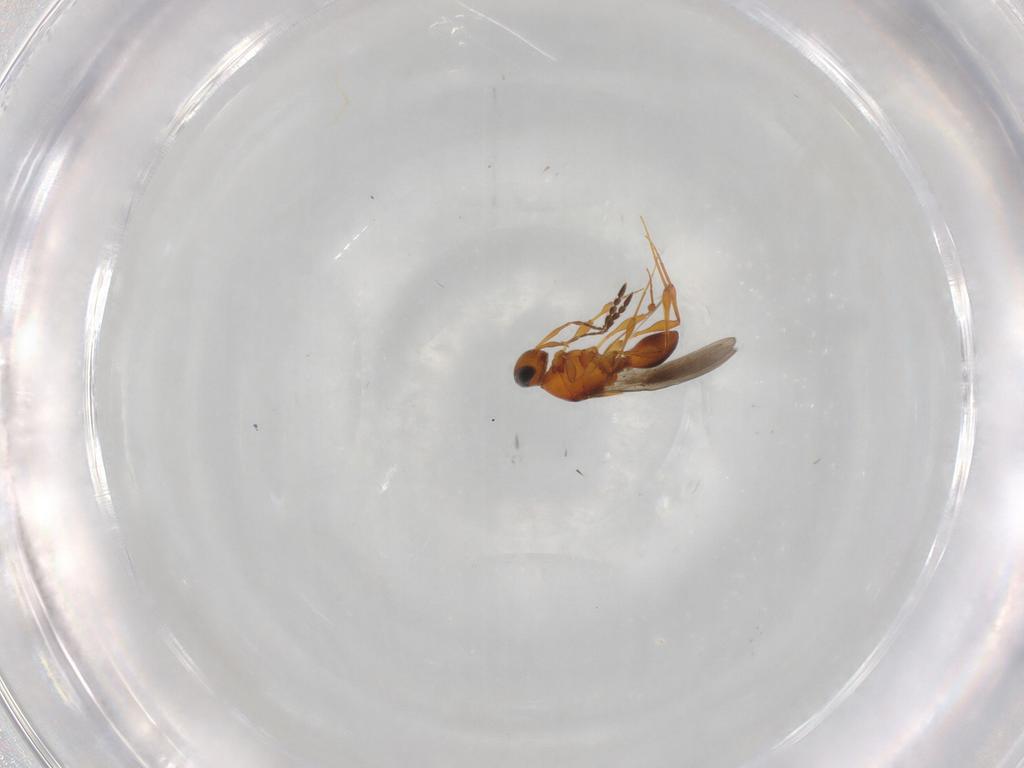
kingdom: Animalia
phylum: Arthropoda
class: Insecta
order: Hymenoptera
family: Platygastridae
